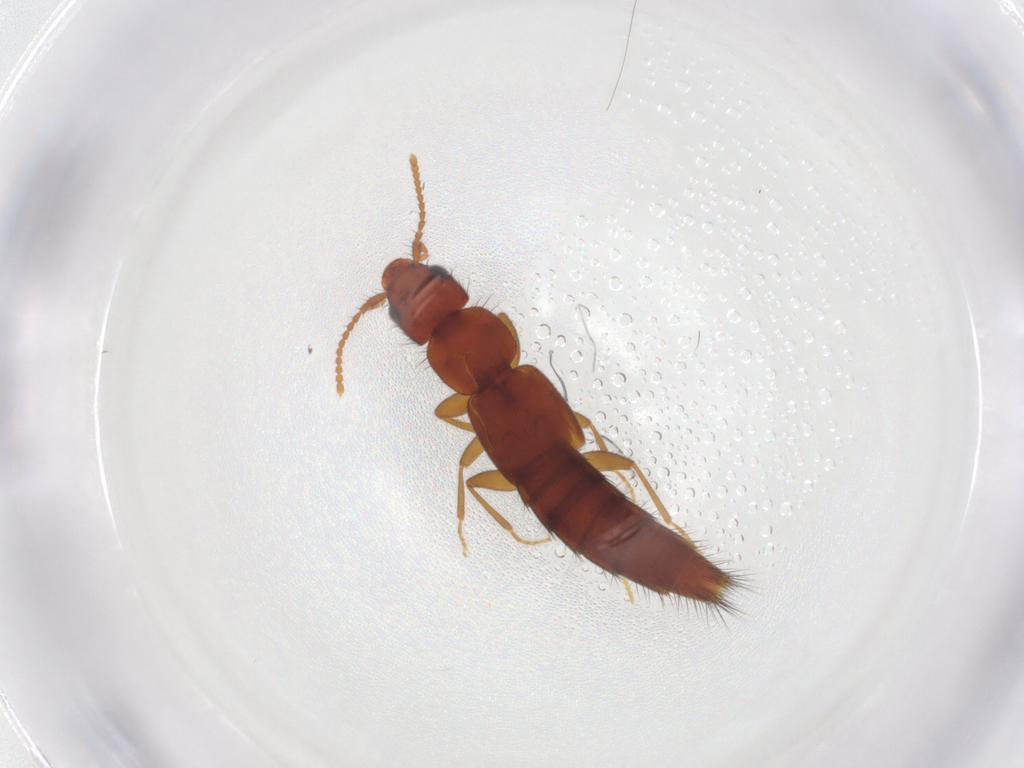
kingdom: Animalia
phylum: Arthropoda
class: Insecta
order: Coleoptera
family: Staphylinidae
